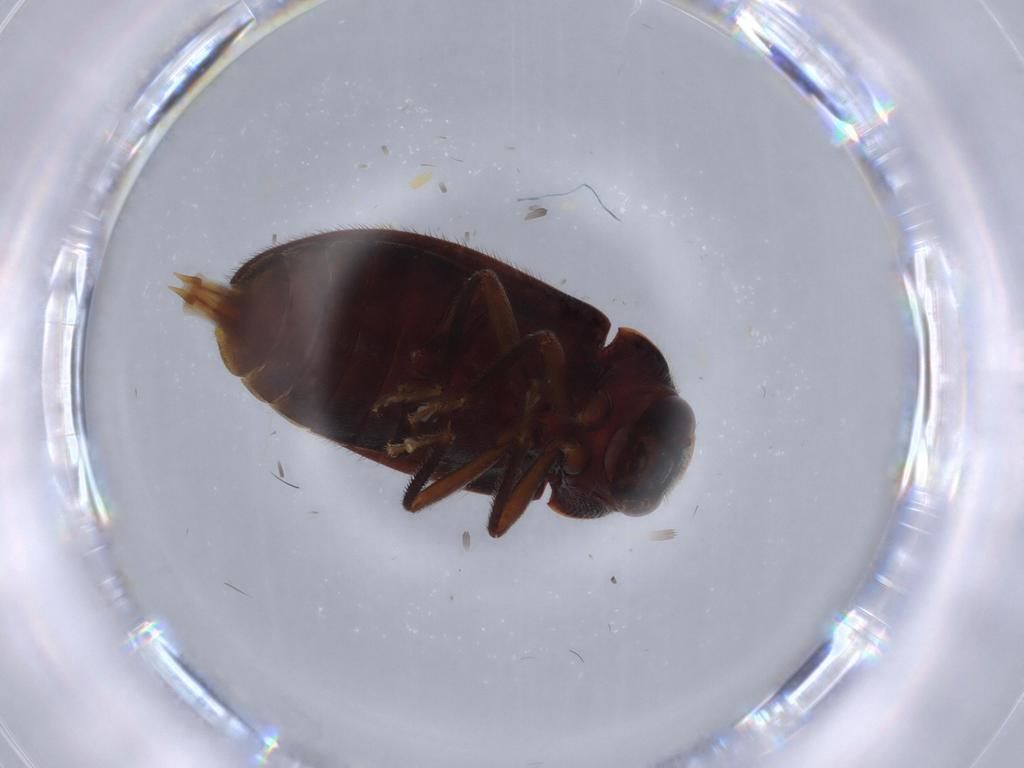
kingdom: Animalia
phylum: Arthropoda
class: Insecta
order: Coleoptera
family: Ptilodactylidae
